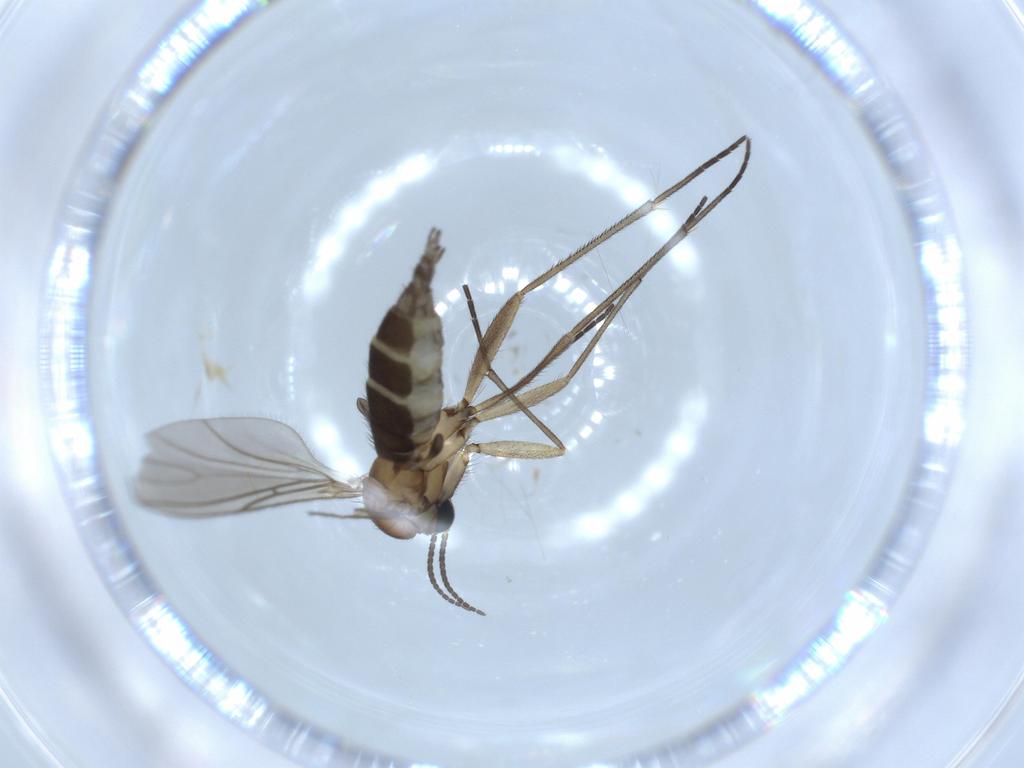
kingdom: Animalia
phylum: Arthropoda
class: Insecta
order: Diptera
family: Sciaridae
